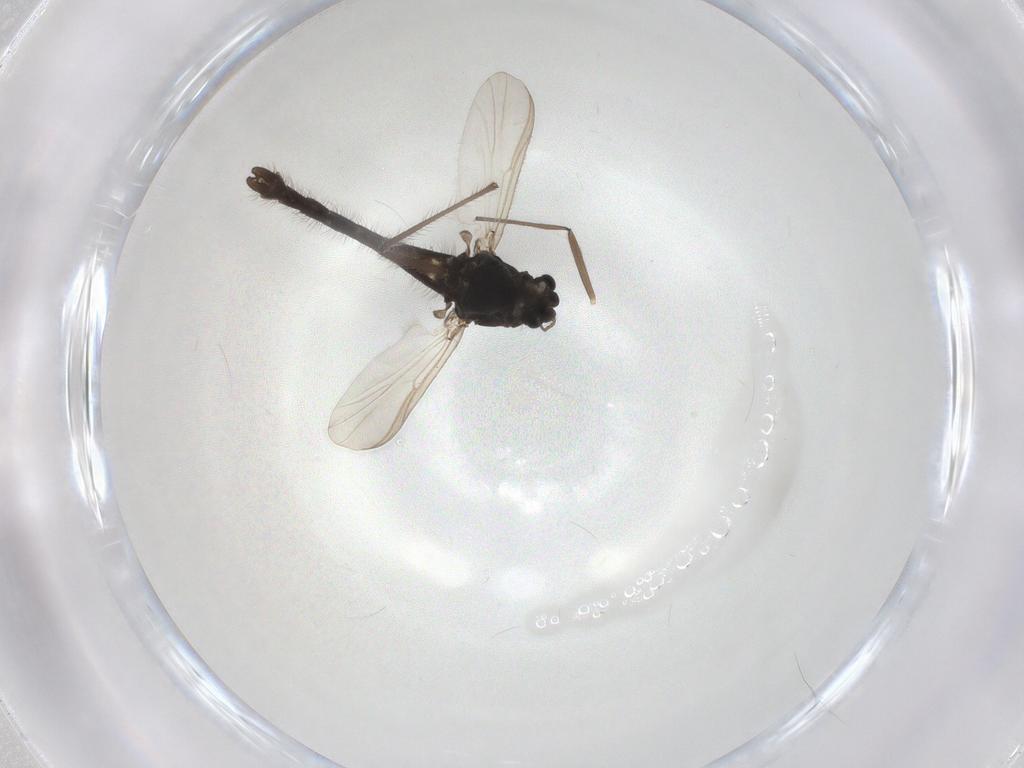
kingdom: Animalia
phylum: Arthropoda
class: Insecta
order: Diptera
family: Chironomidae
